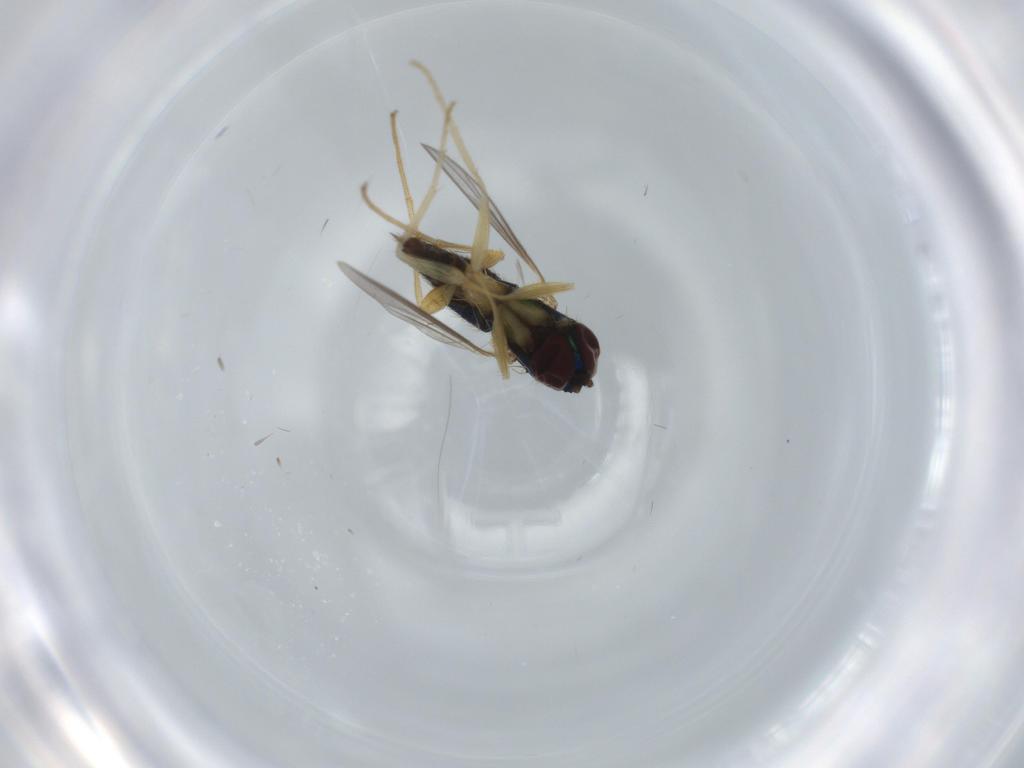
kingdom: Animalia
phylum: Arthropoda
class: Insecta
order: Diptera
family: Dolichopodidae
